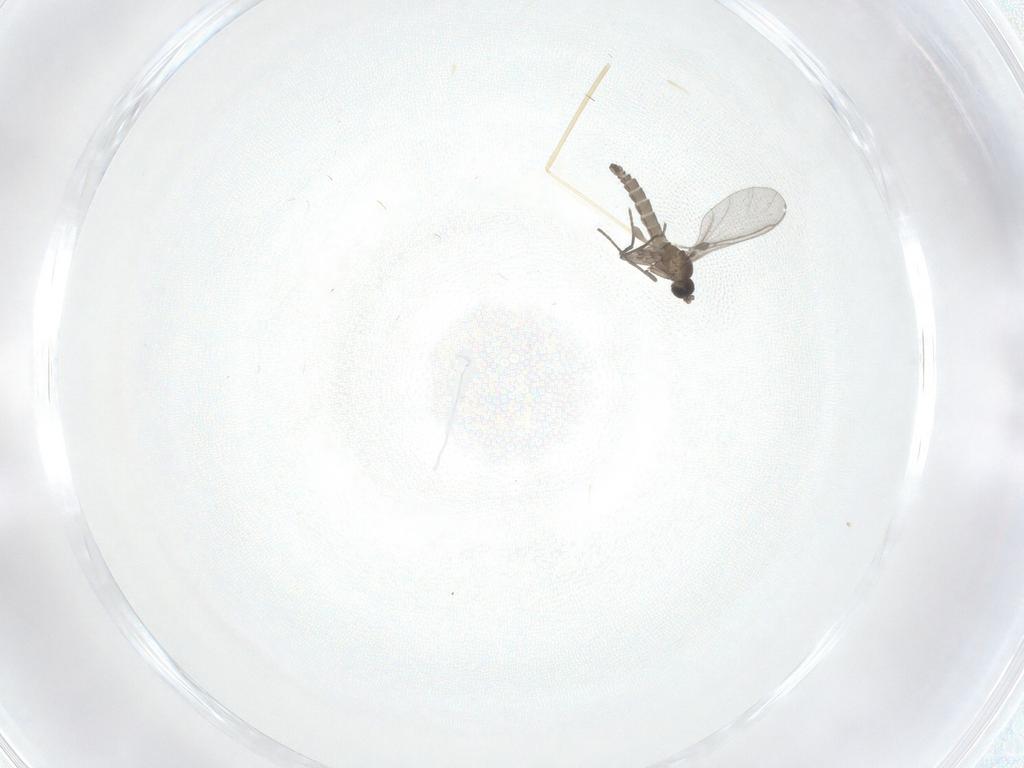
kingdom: Animalia
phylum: Arthropoda
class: Insecta
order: Diptera
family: Sciaridae
